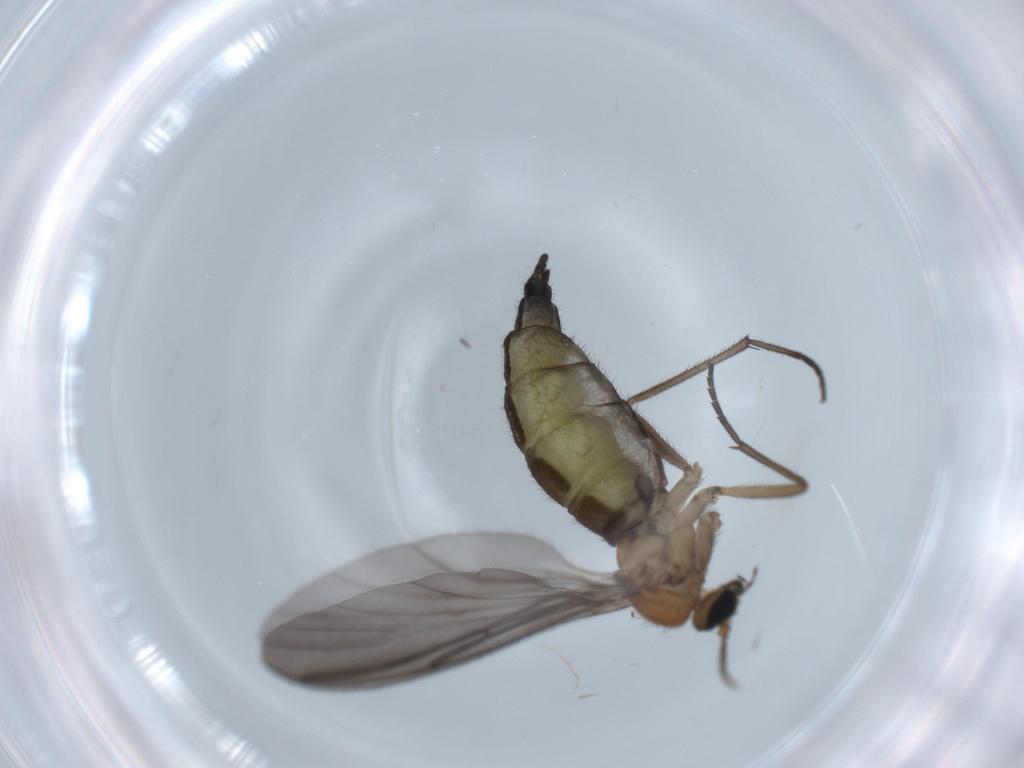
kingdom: Animalia
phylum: Arthropoda
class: Insecta
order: Diptera
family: Sciaridae
